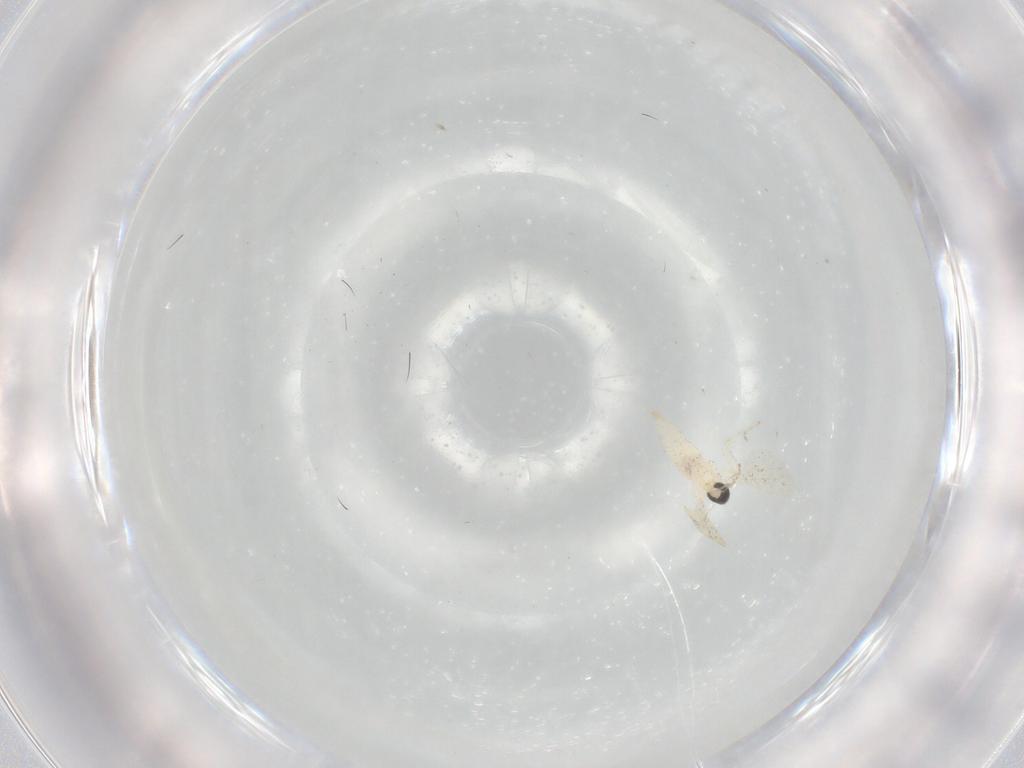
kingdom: Animalia
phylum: Arthropoda
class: Insecta
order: Diptera
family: Cecidomyiidae
